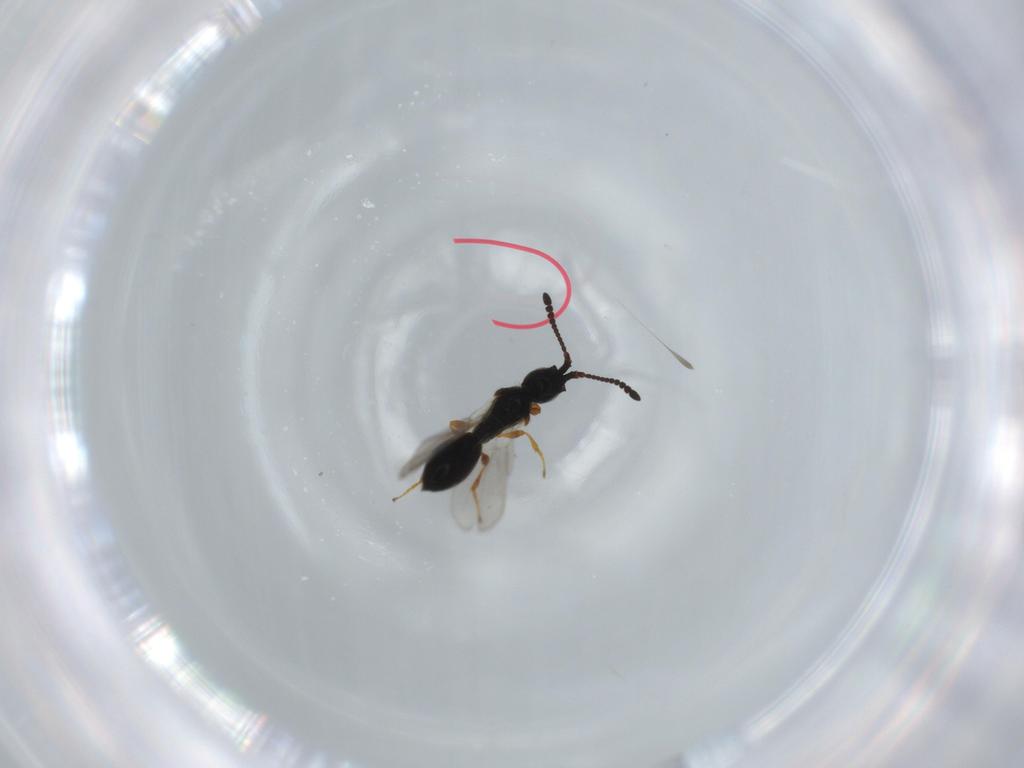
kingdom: Animalia
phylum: Arthropoda
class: Insecta
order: Hymenoptera
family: Diapriidae
